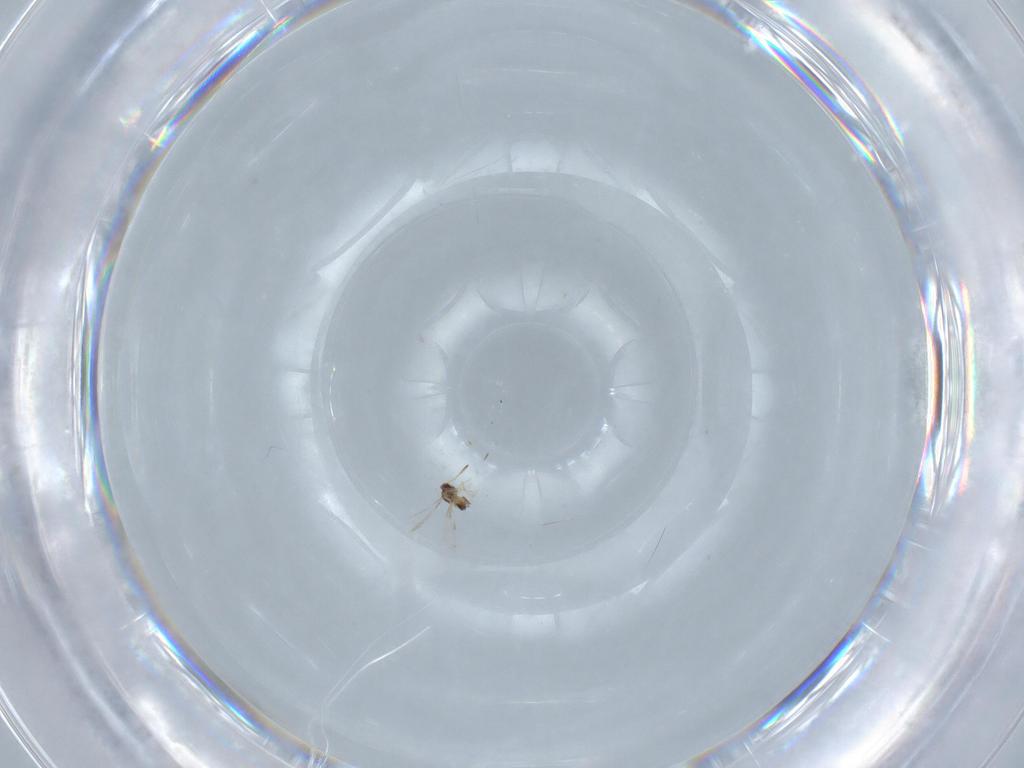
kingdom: Animalia
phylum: Arthropoda
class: Insecta
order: Hymenoptera
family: Mymaridae
